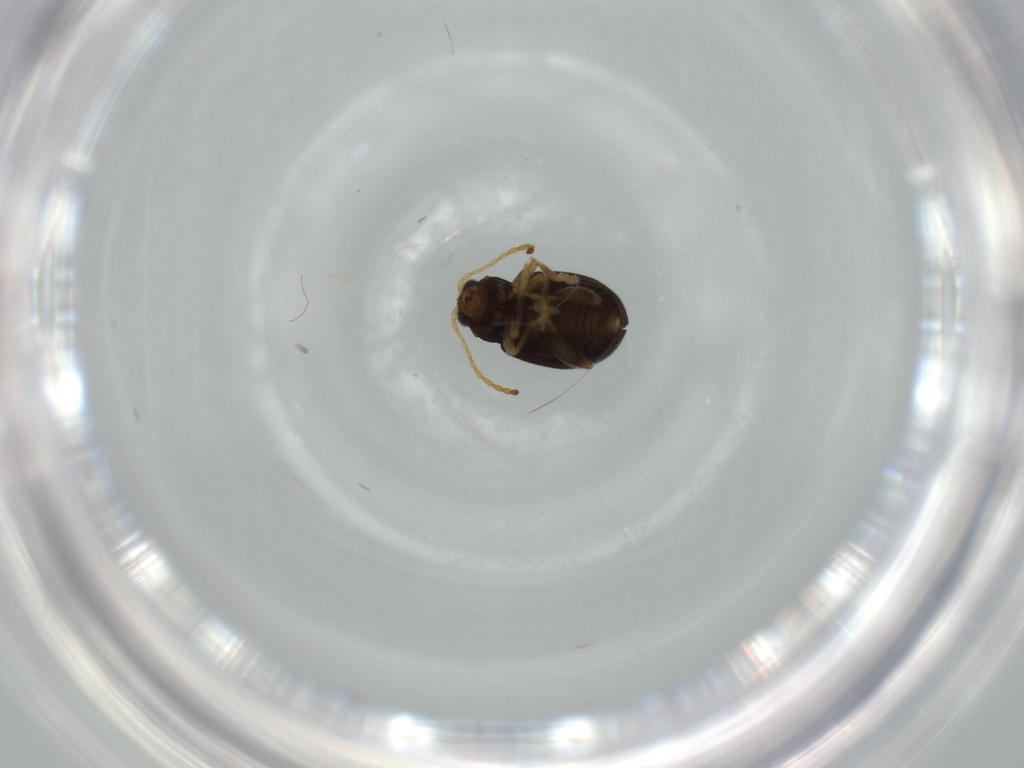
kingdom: Animalia
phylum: Arthropoda
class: Insecta
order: Coleoptera
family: Chrysomelidae
